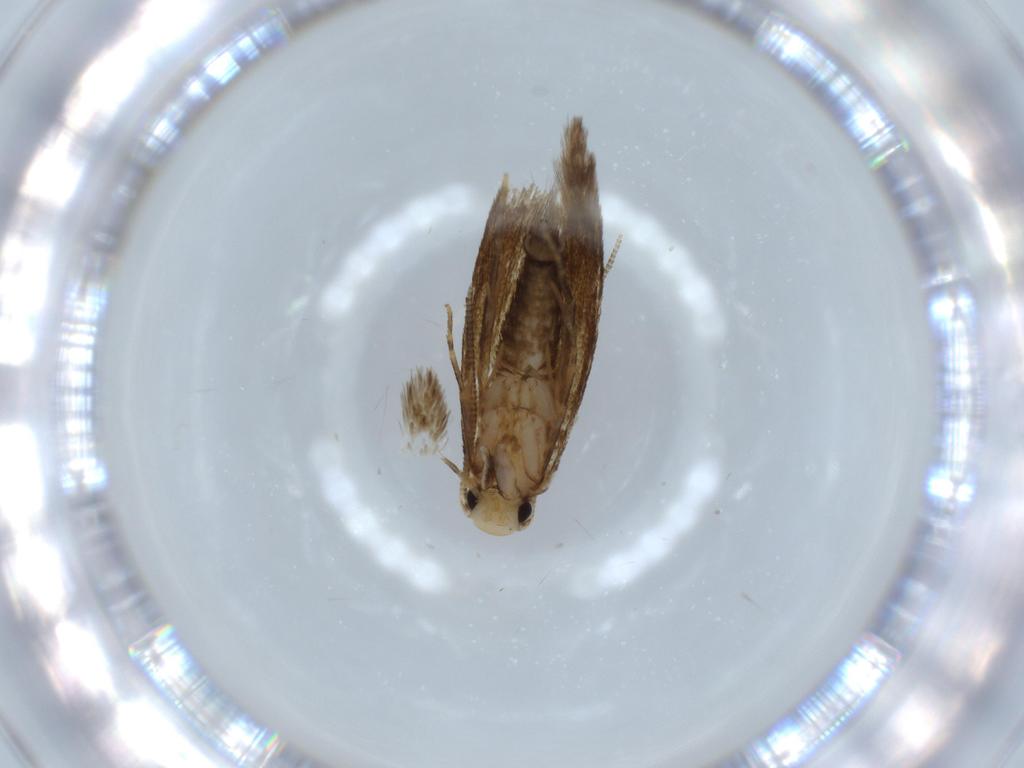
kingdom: Animalia
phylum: Arthropoda
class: Insecta
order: Lepidoptera
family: Tineidae
